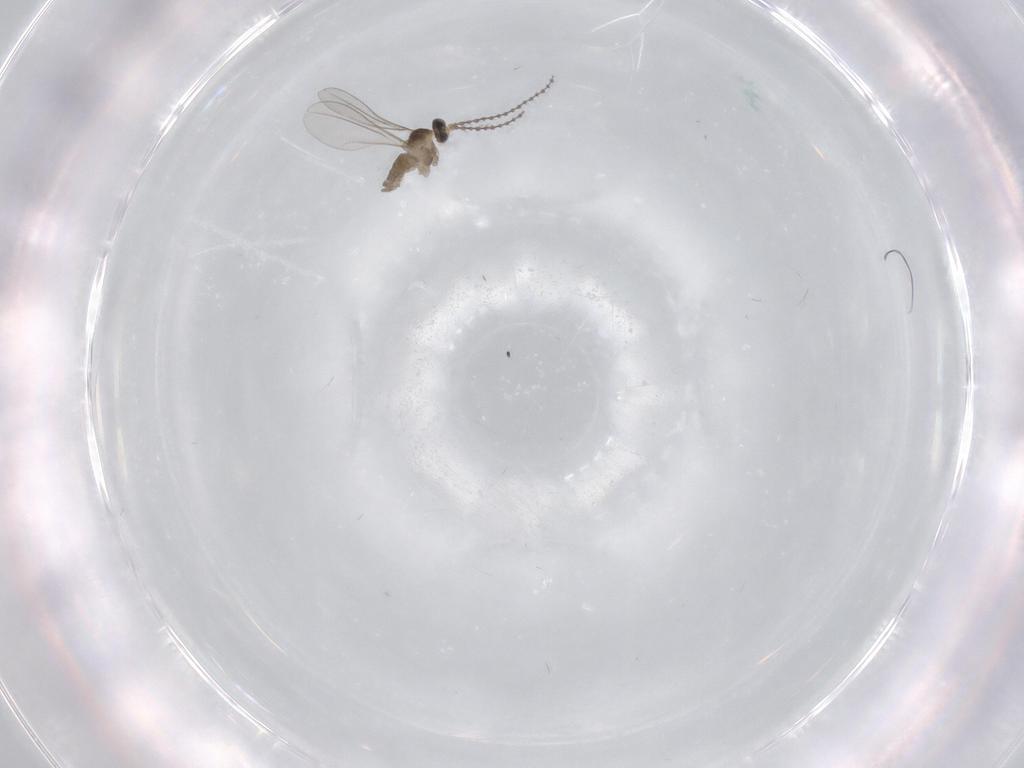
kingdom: Animalia
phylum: Arthropoda
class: Insecta
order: Diptera
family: Chironomidae
